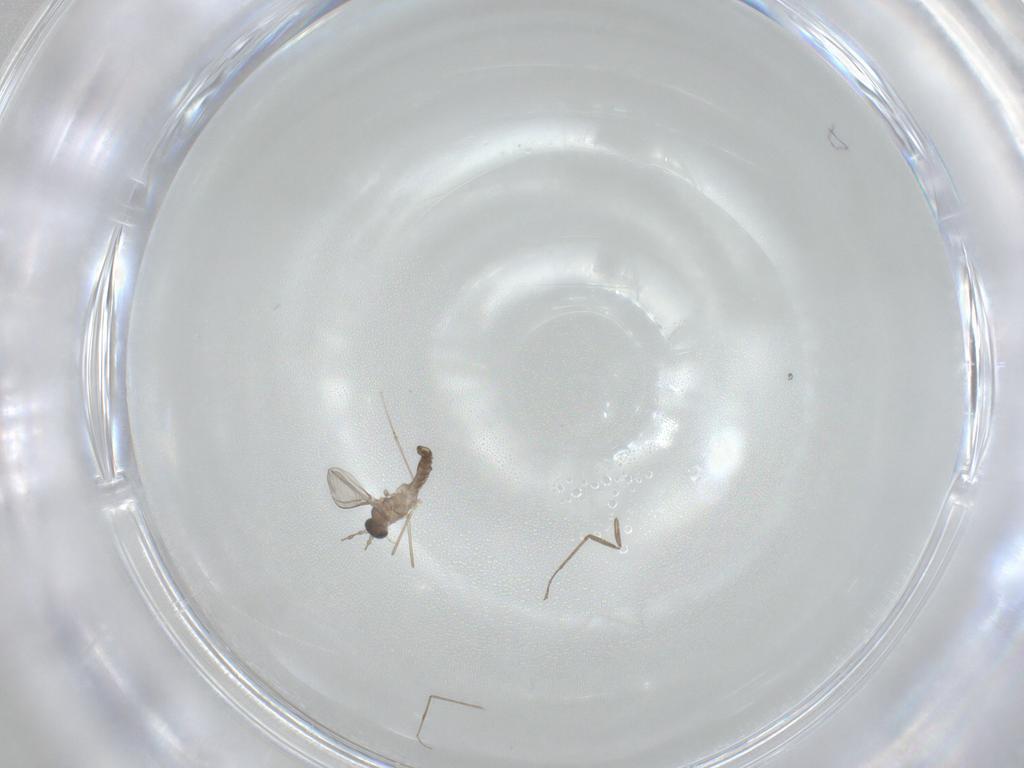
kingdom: Animalia
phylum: Arthropoda
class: Insecta
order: Diptera
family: Cecidomyiidae
